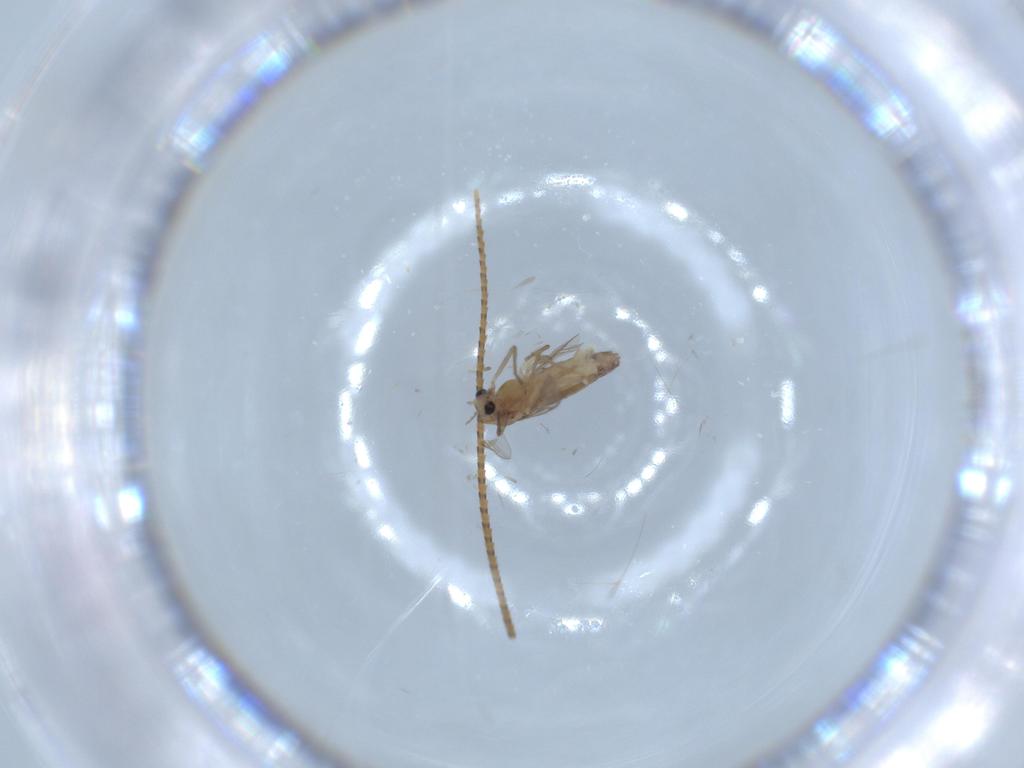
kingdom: Animalia
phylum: Arthropoda
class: Insecta
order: Diptera
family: Chironomidae
